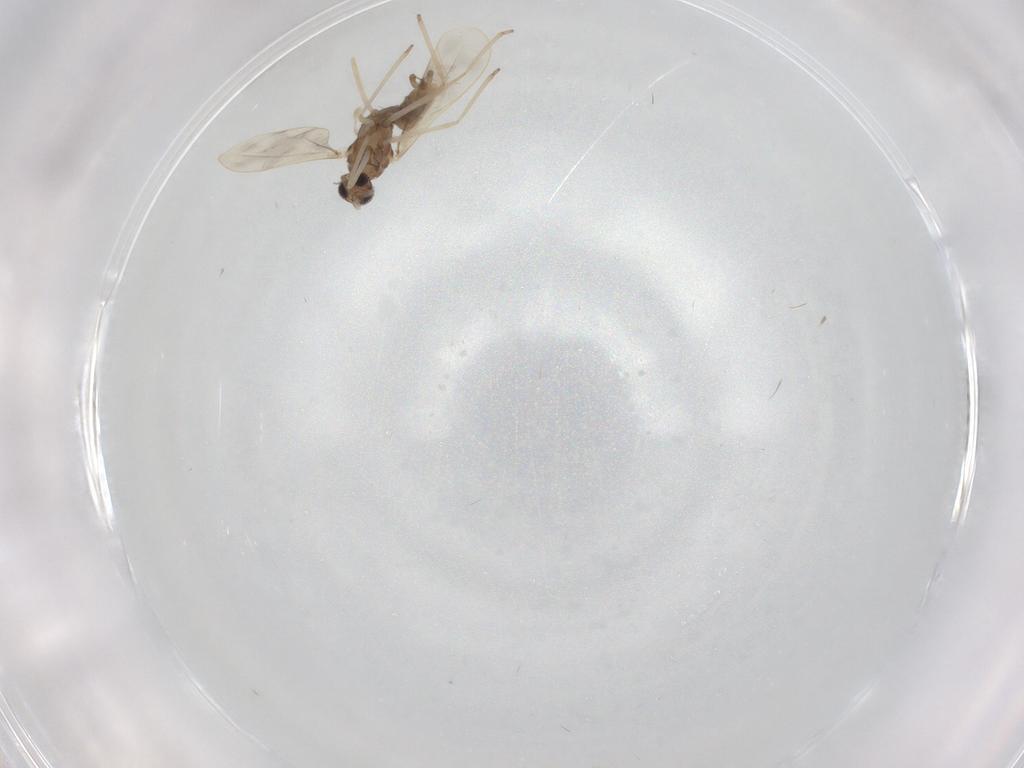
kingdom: Animalia
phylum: Arthropoda
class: Insecta
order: Diptera
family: Cecidomyiidae
